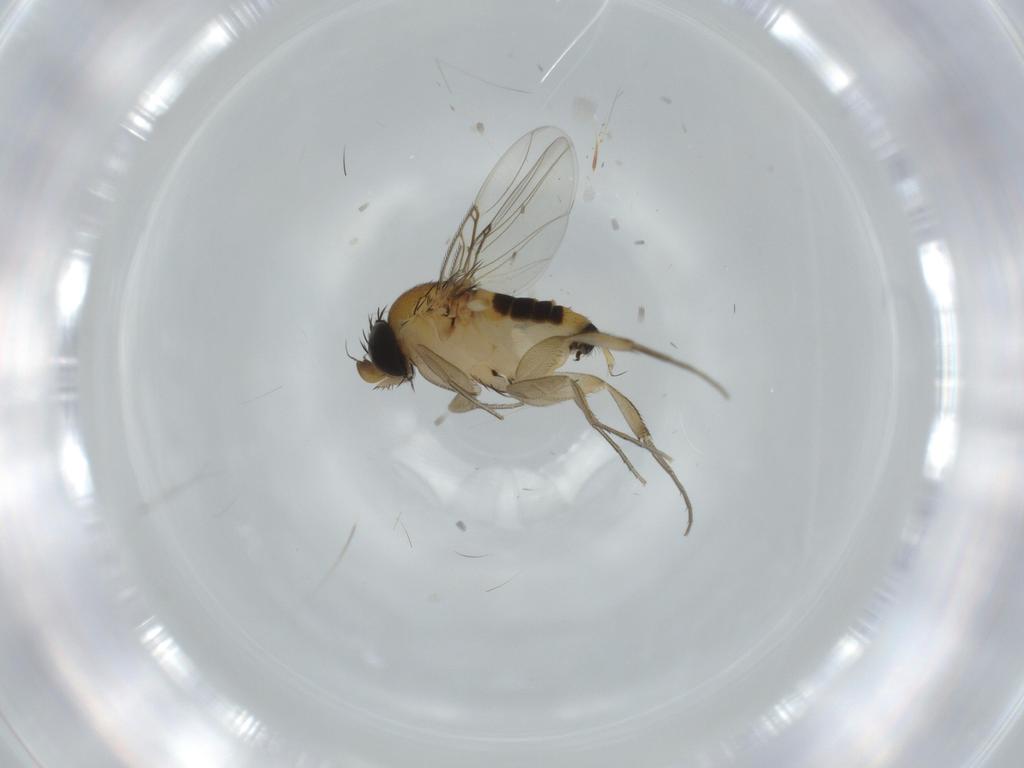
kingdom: Animalia
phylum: Arthropoda
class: Insecta
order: Diptera
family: Phoridae
